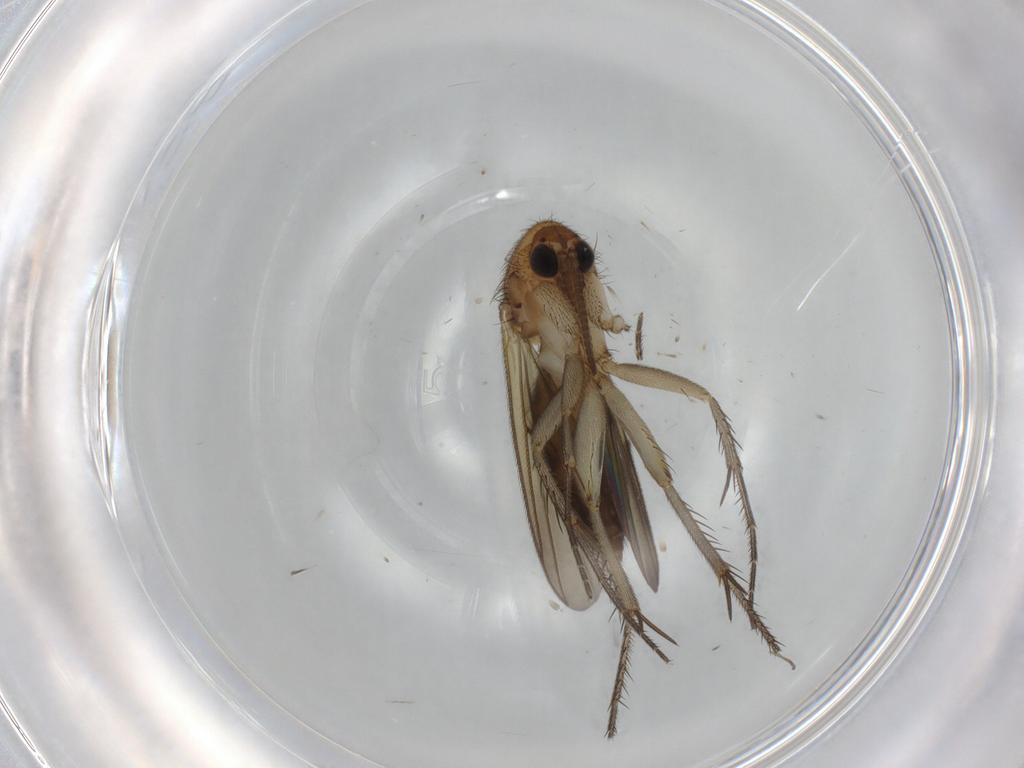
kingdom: Animalia
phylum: Arthropoda
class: Insecta
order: Diptera
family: Mycetophilidae
